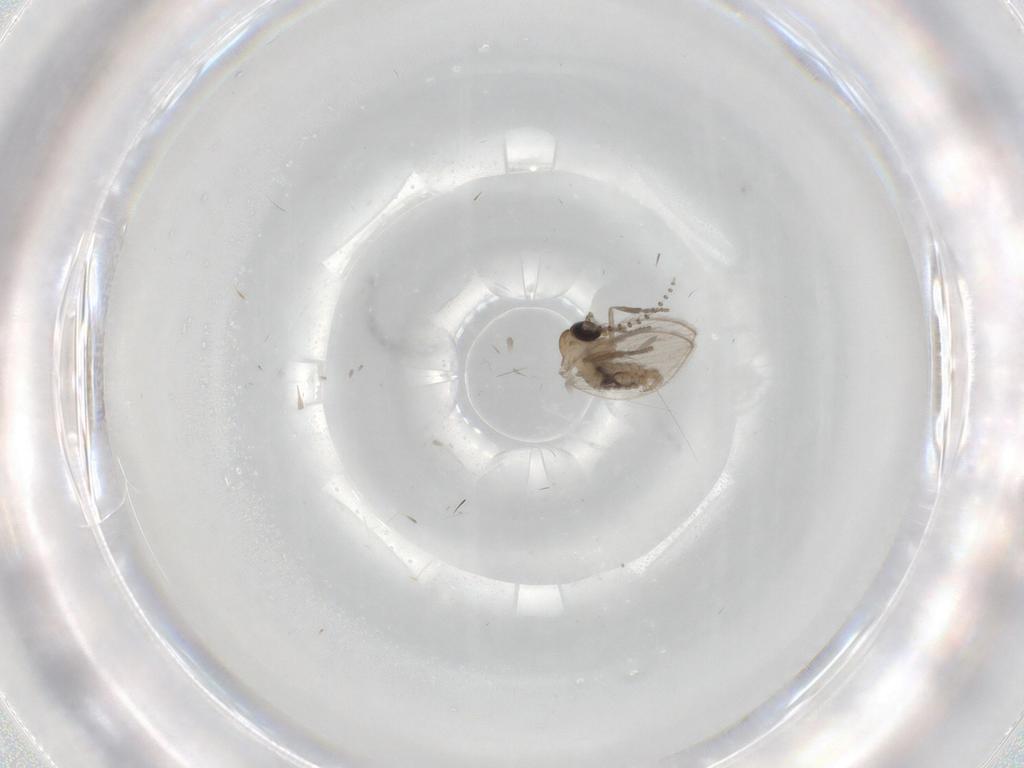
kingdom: Animalia
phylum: Arthropoda
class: Insecta
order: Diptera
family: Psychodidae
